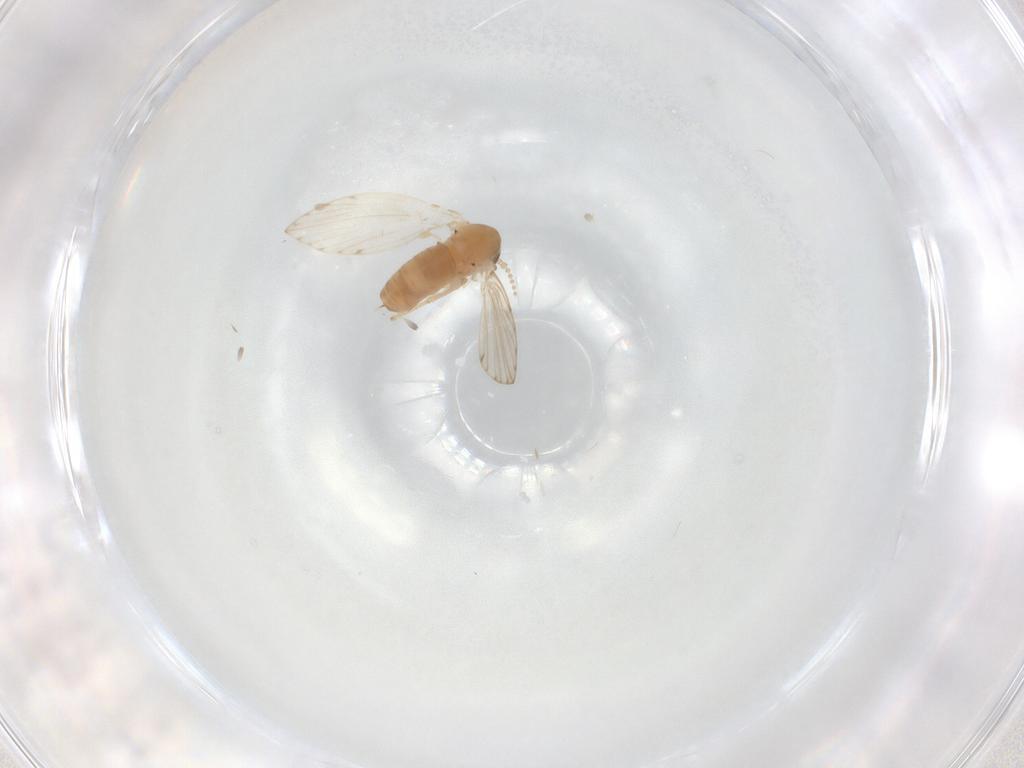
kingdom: Animalia
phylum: Arthropoda
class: Insecta
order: Diptera
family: Psychodidae
